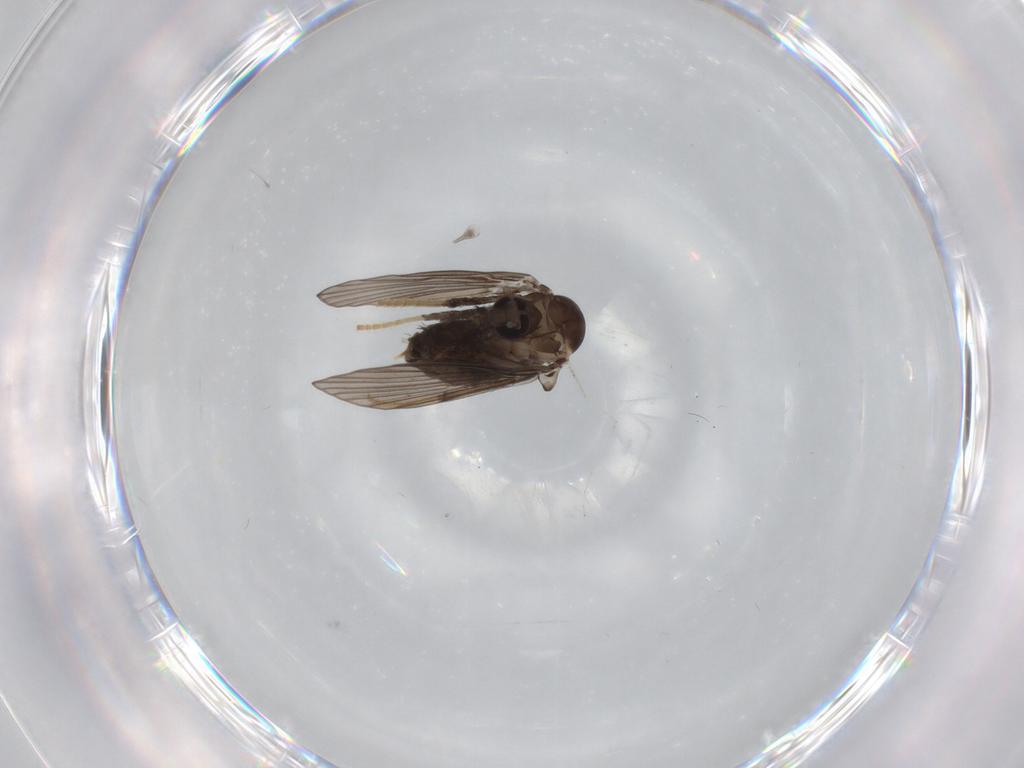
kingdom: Animalia
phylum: Arthropoda
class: Insecta
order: Diptera
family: Psychodidae
